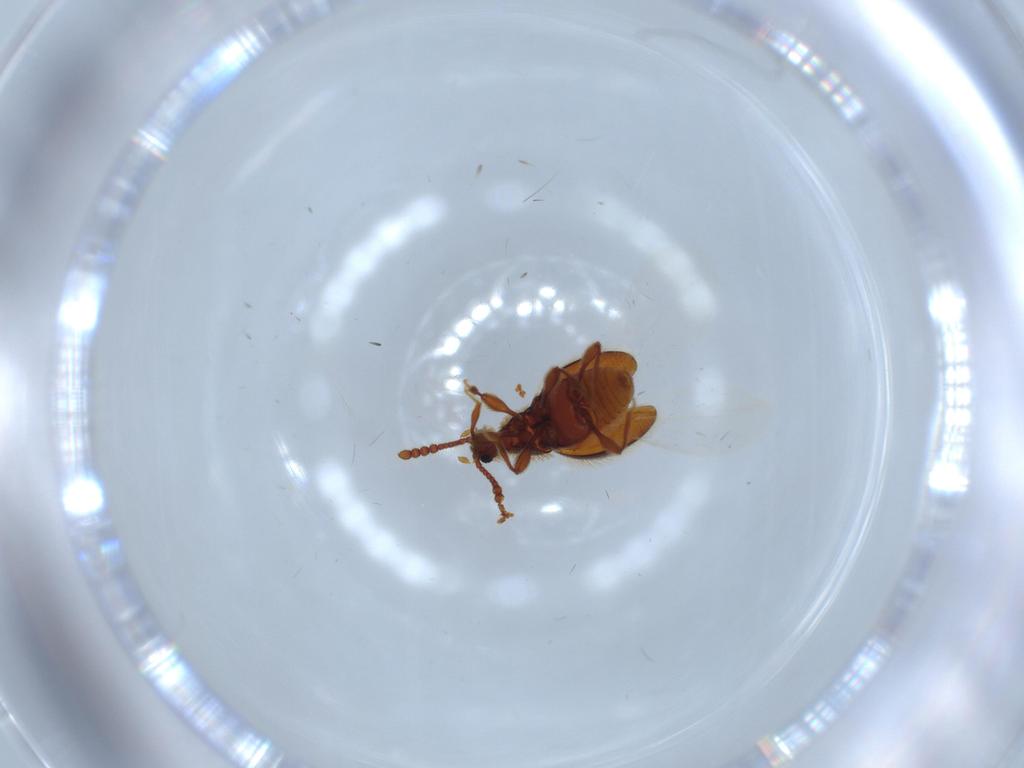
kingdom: Animalia
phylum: Arthropoda
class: Insecta
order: Coleoptera
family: Staphylinidae
